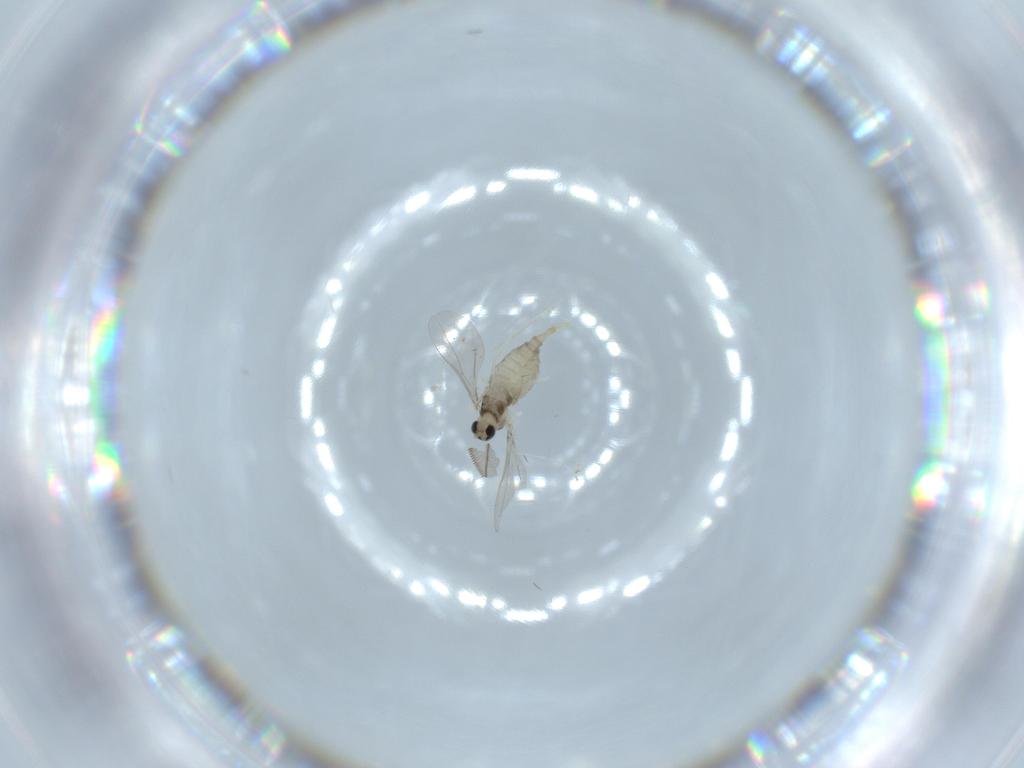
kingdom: Animalia
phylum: Arthropoda
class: Insecta
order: Diptera
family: Cecidomyiidae
